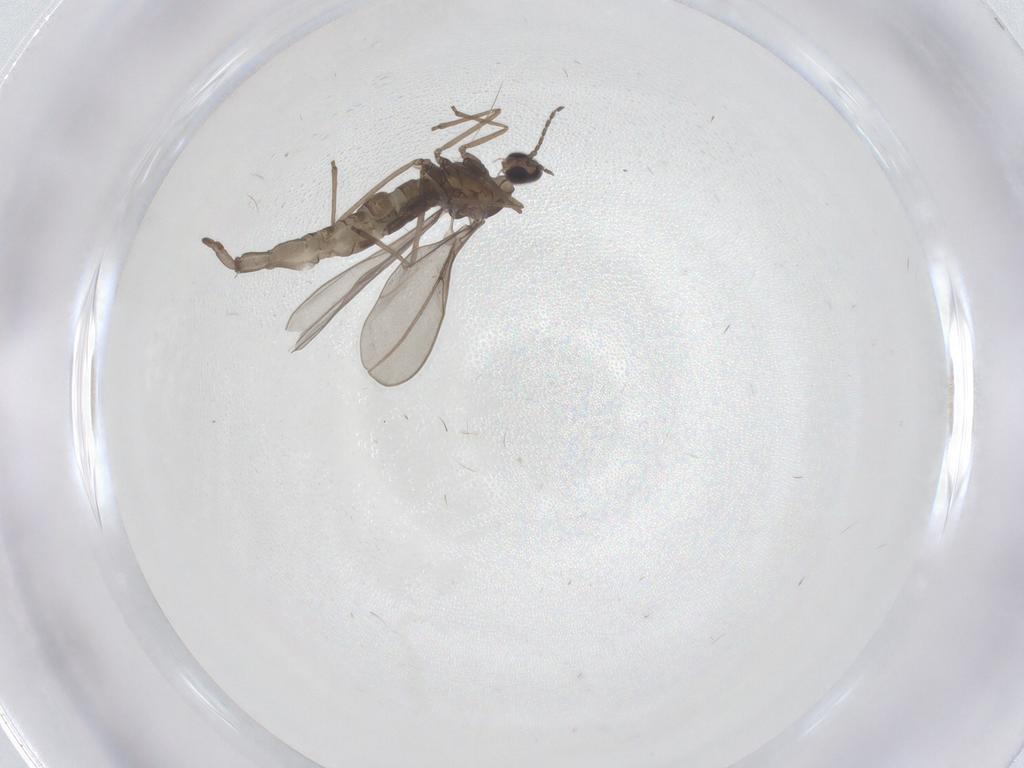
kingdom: Animalia
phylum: Arthropoda
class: Insecta
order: Diptera
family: Cecidomyiidae
